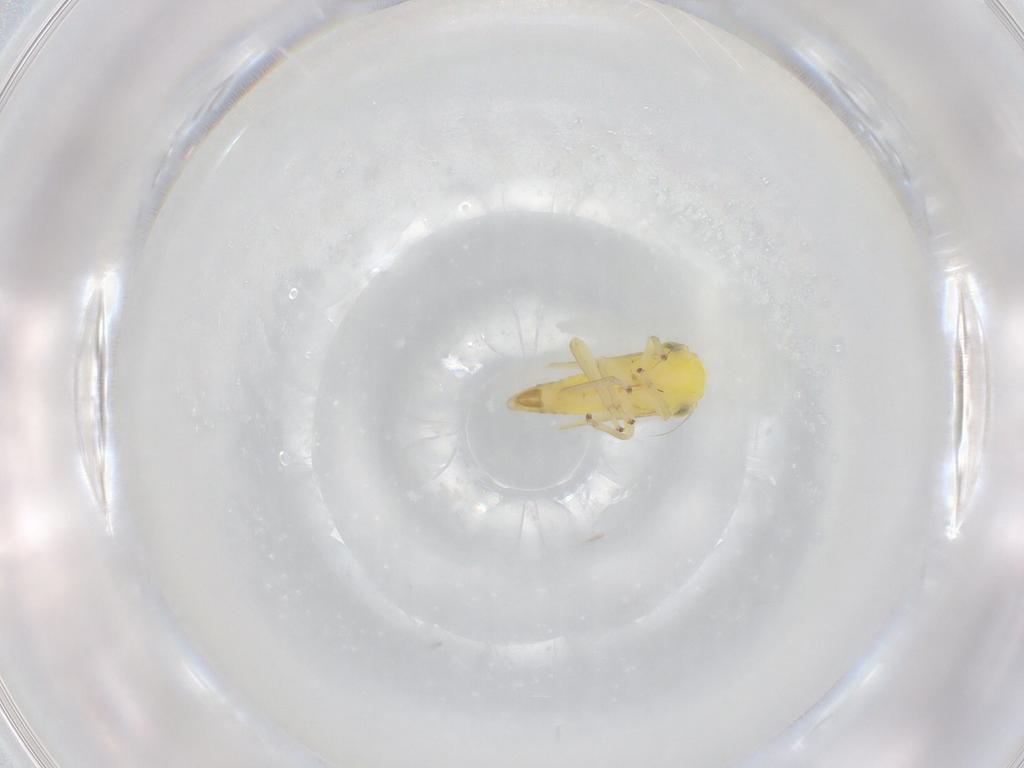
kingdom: Animalia
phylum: Arthropoda
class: Insecta
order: Hemiptera
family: Cicadellidae
